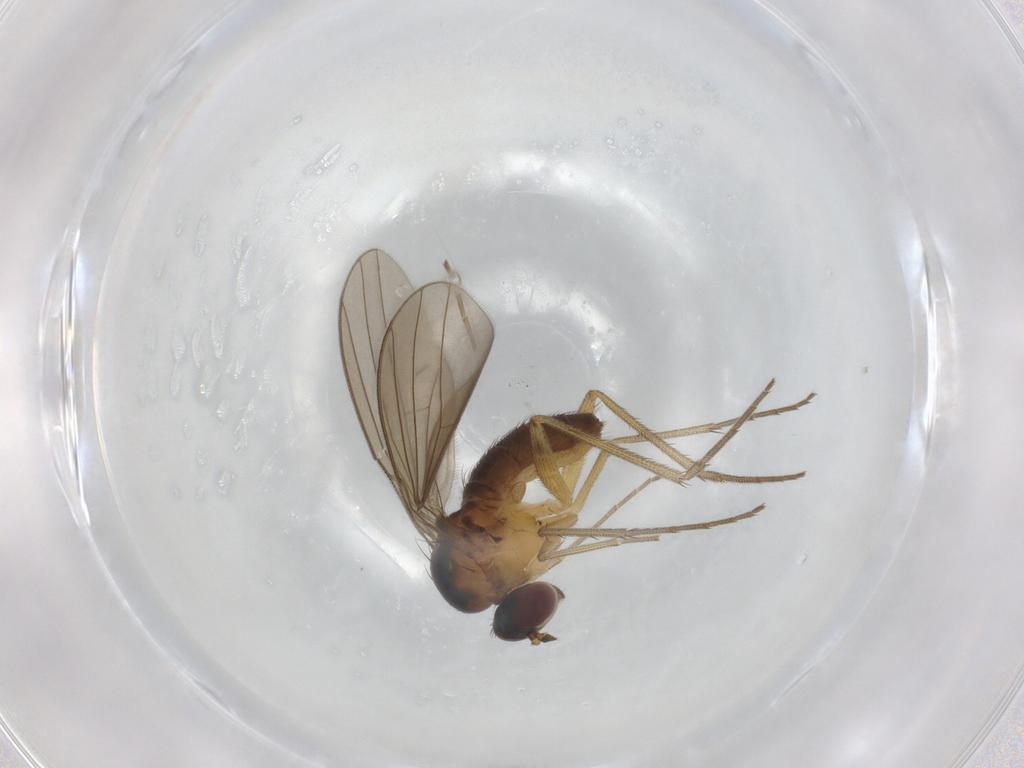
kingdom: Animalia
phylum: Arthropoda
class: Insecta
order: Diptera
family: Dolichopodidae
